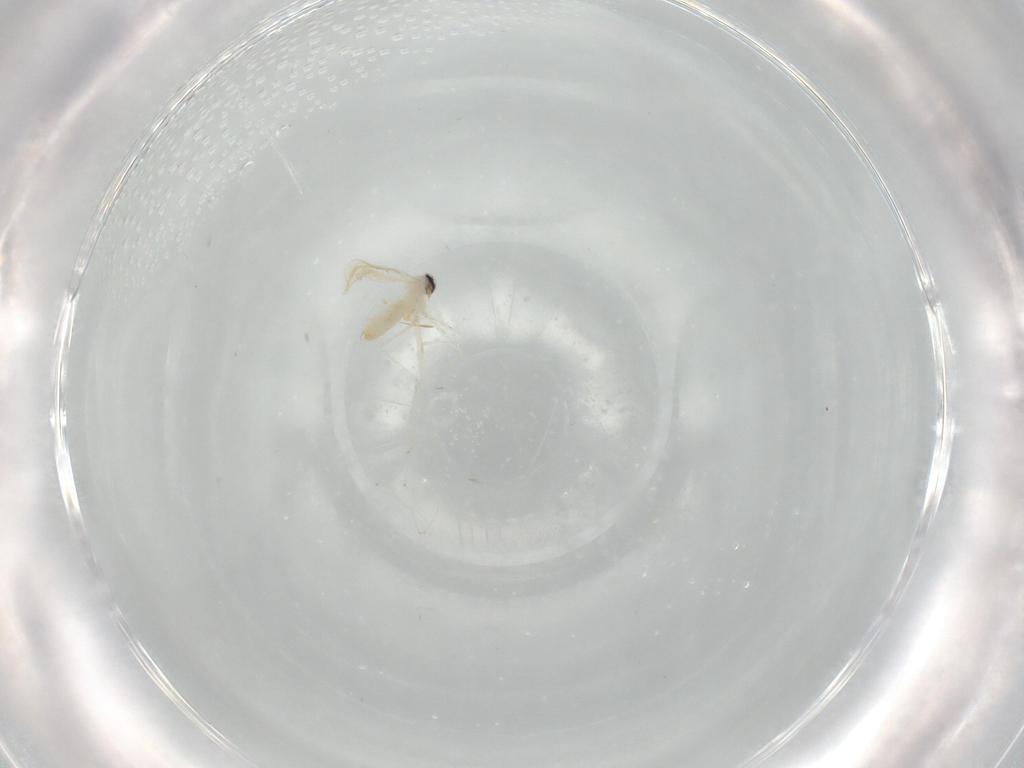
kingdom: Animalia
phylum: Arthropoda
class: Insecta
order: Diptera
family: Cecidomyiidae
